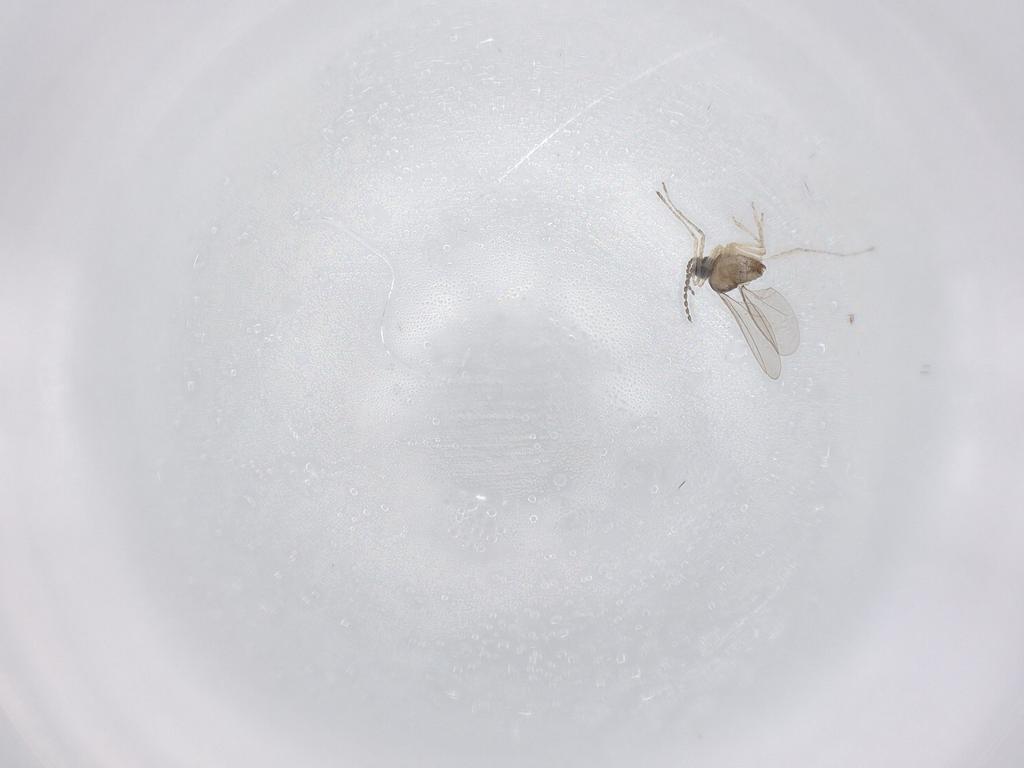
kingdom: Animalia
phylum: Arthropoda
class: Insecta
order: Diptera
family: Cecidomyiidae
